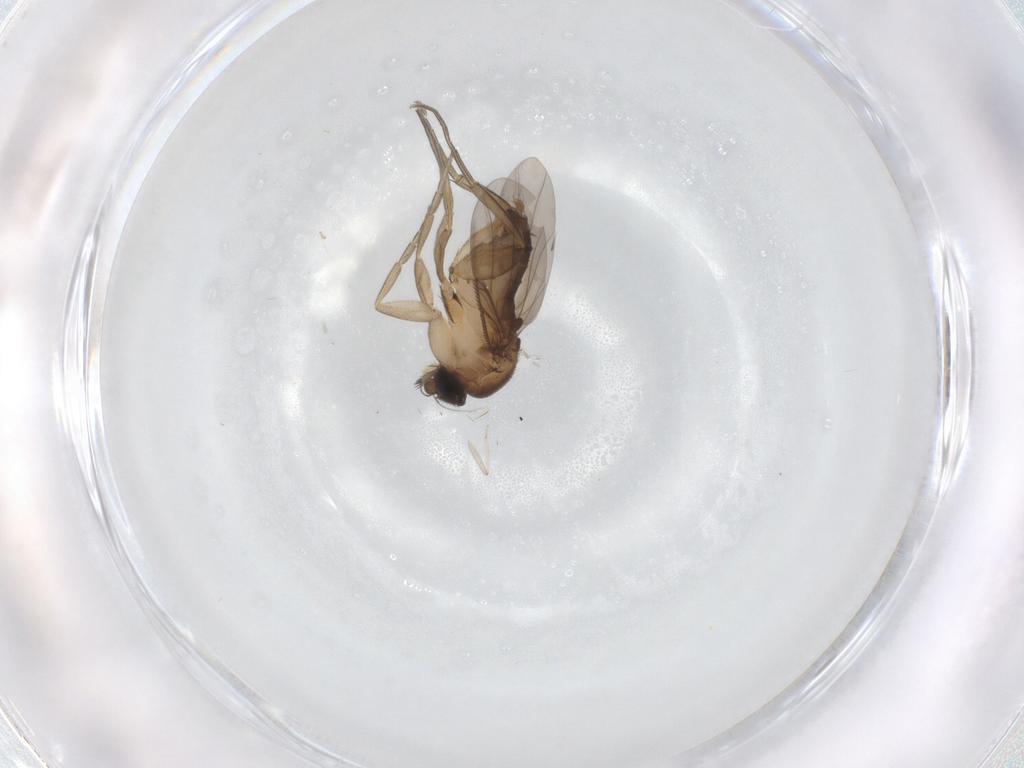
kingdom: Animalia
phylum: Arthropoda
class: Insecta
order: Diptera
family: Phoridae
